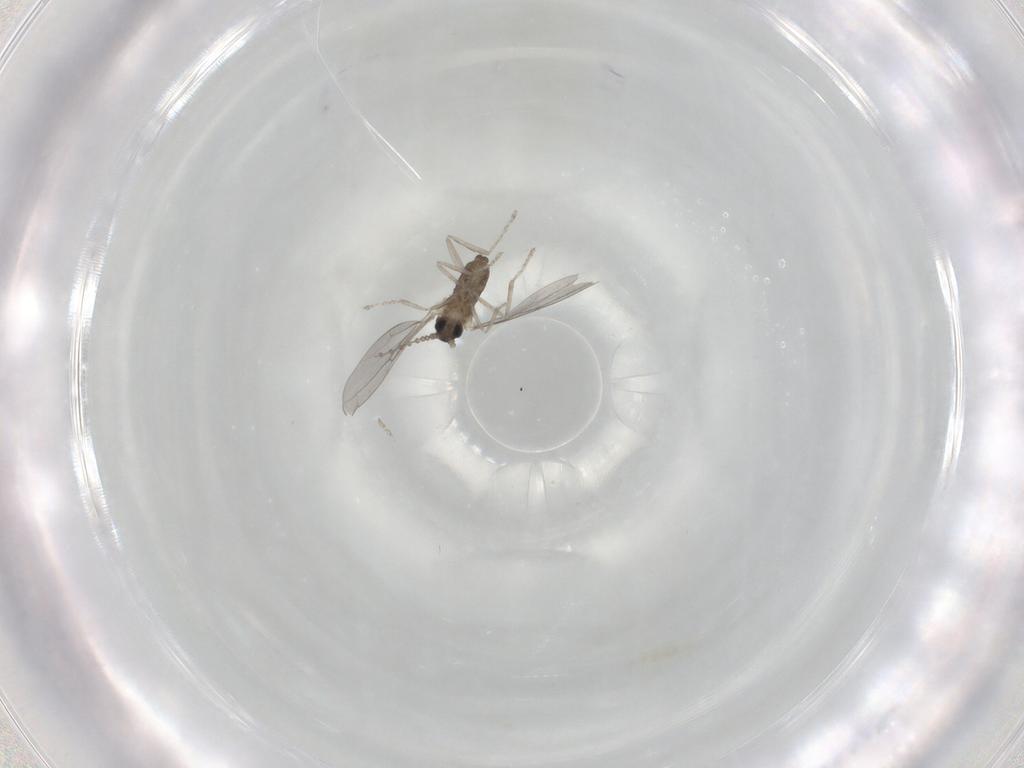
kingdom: Animalia
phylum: Arthropoda
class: Insecta
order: Diptera
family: Cecidomyiidae
